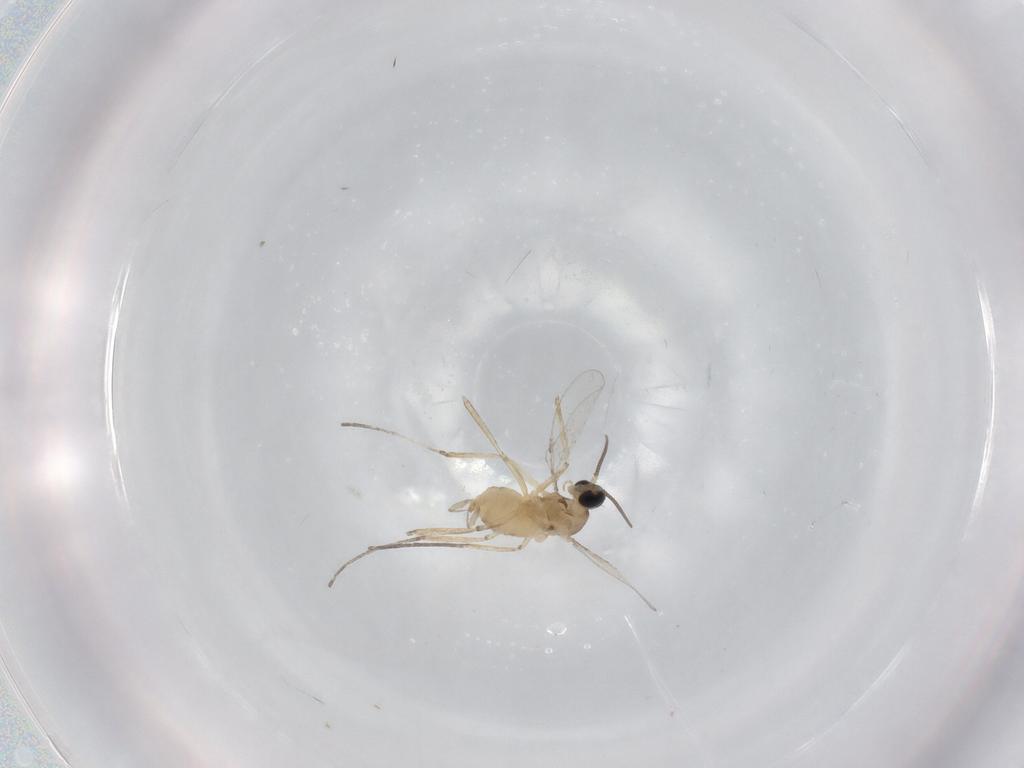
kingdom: Animalia
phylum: Arthropoda
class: Insecta
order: Diptera
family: Cecidomyiidae
